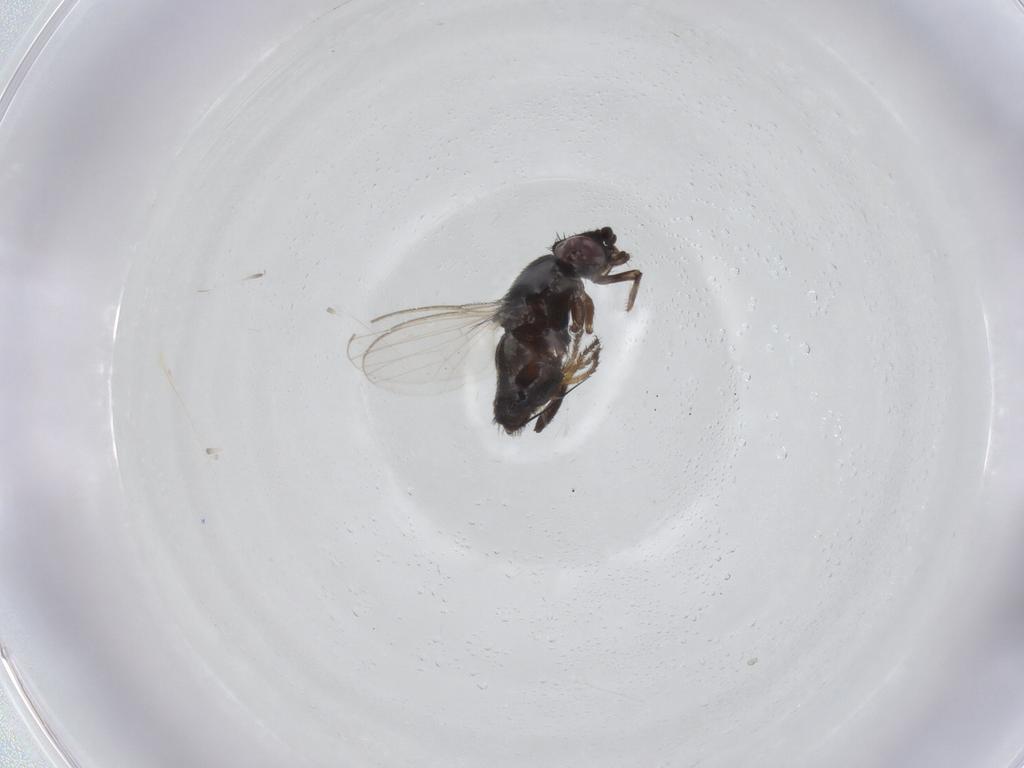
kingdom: Animalia
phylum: Arthropoda
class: Insecta
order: Diptera
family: Milichiidae
